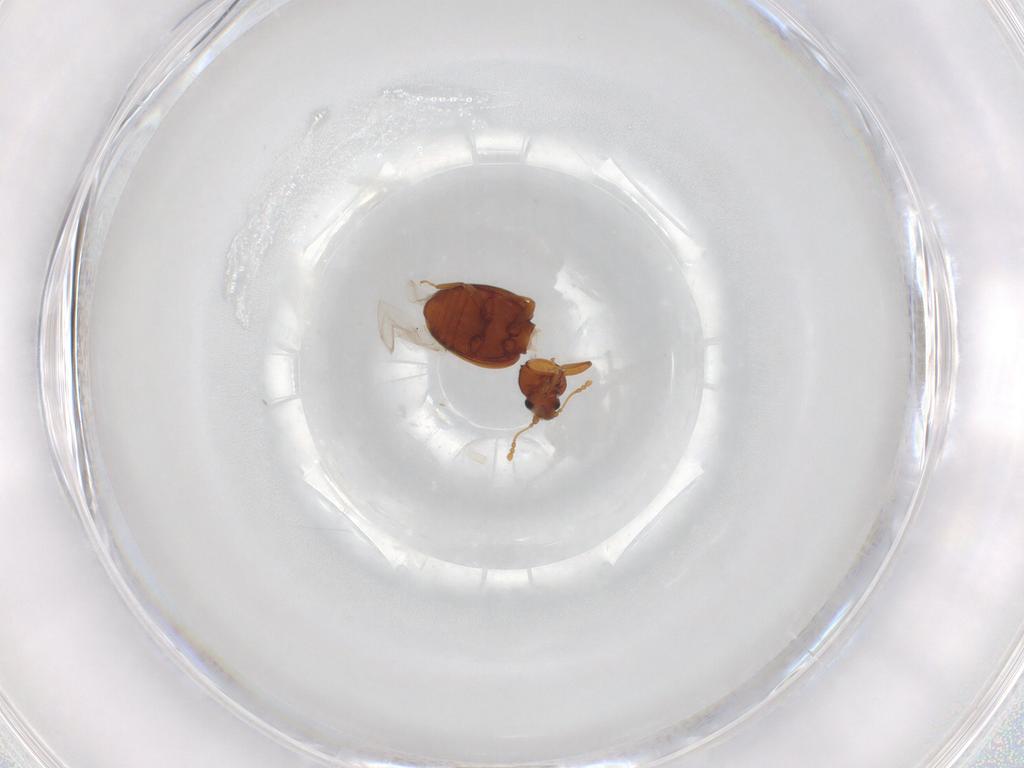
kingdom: Animalia
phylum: Arthropoda
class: Insecta
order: Coleoptera
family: Latridiidae
